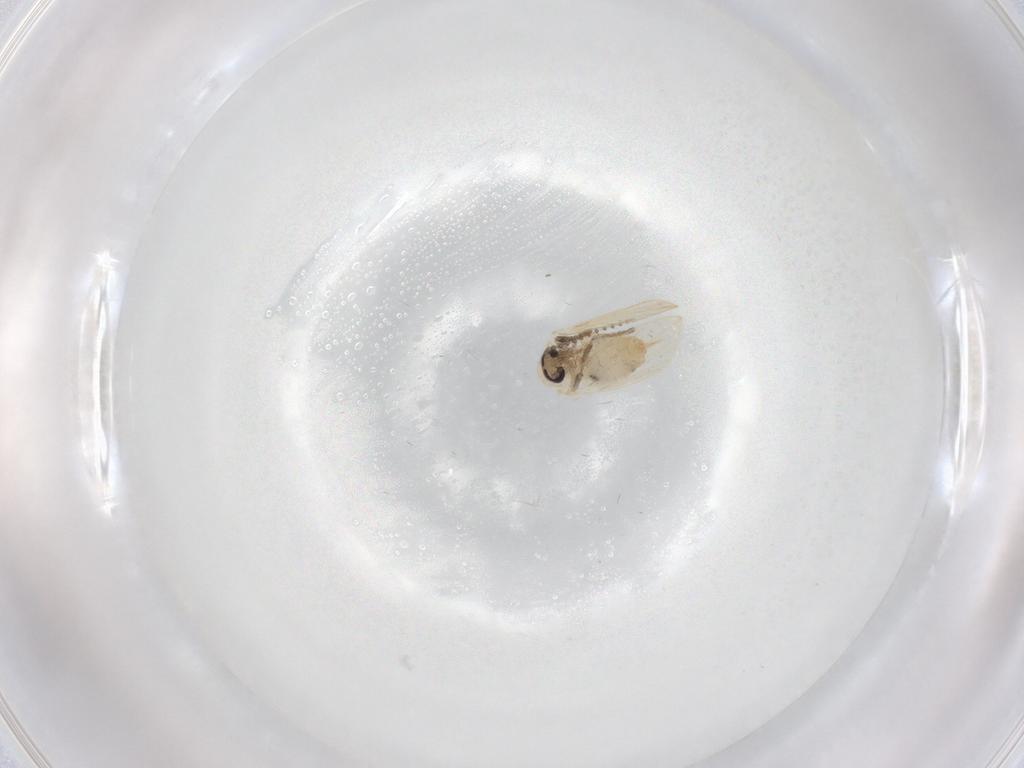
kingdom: Animalia
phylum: Arthropoda
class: Insecta
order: Diptera
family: Psychodidae
